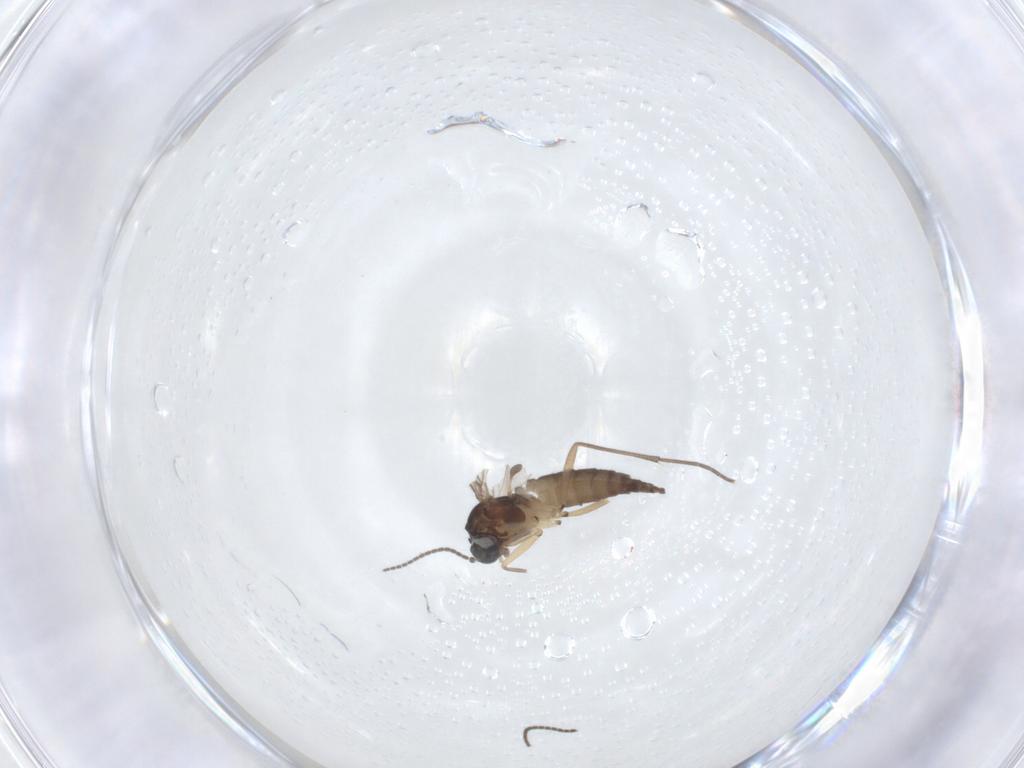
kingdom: Animalia
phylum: Arthropoda
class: Insecta
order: Diptera
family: Sciaridae
